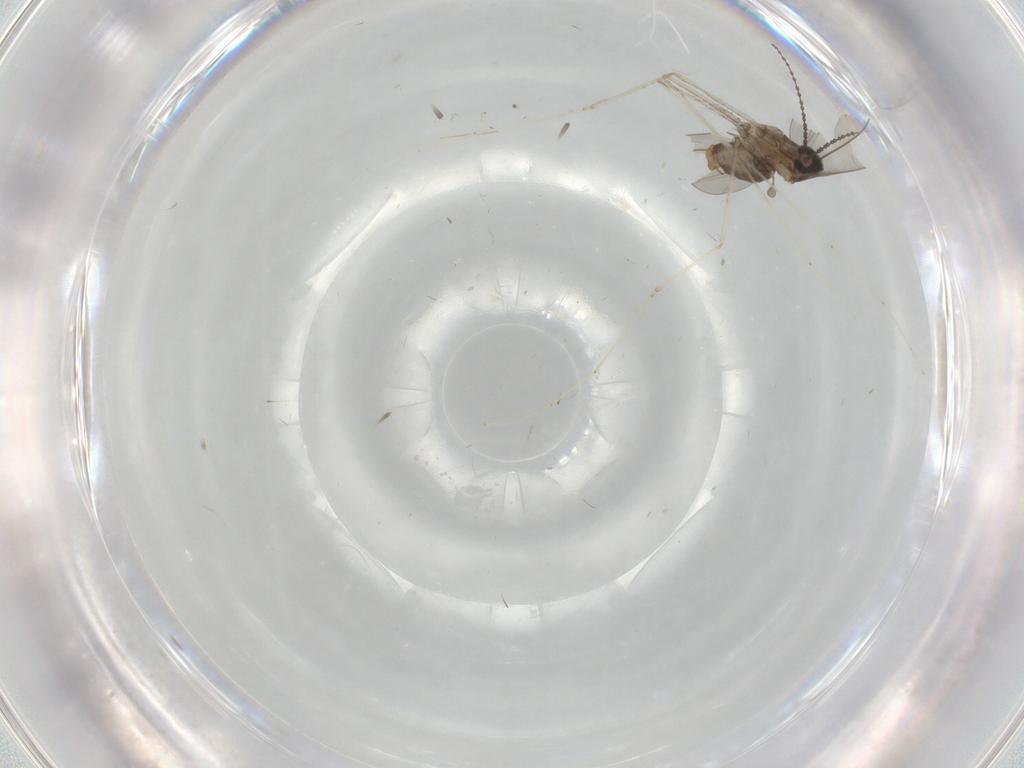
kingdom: Animalia
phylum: Arthropoda
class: Insecta
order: Diptera
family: Cecidomyiidae
